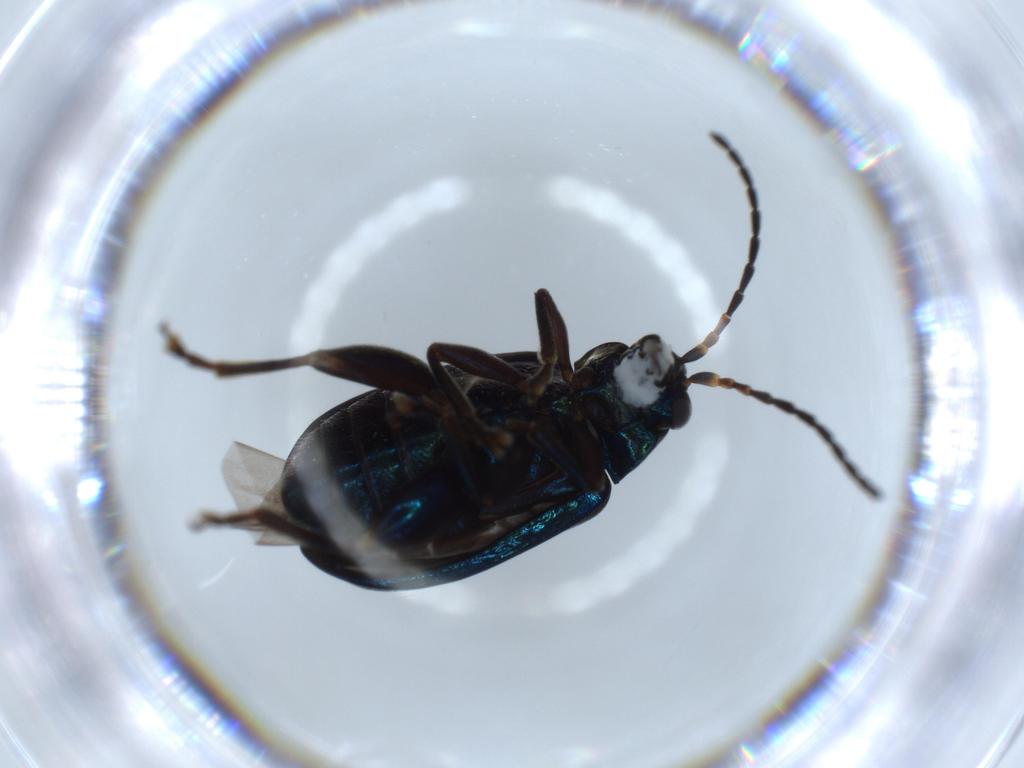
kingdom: Animalia
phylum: Arthropoda
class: Insecta
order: Coleoptera
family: Chrysomelidae
